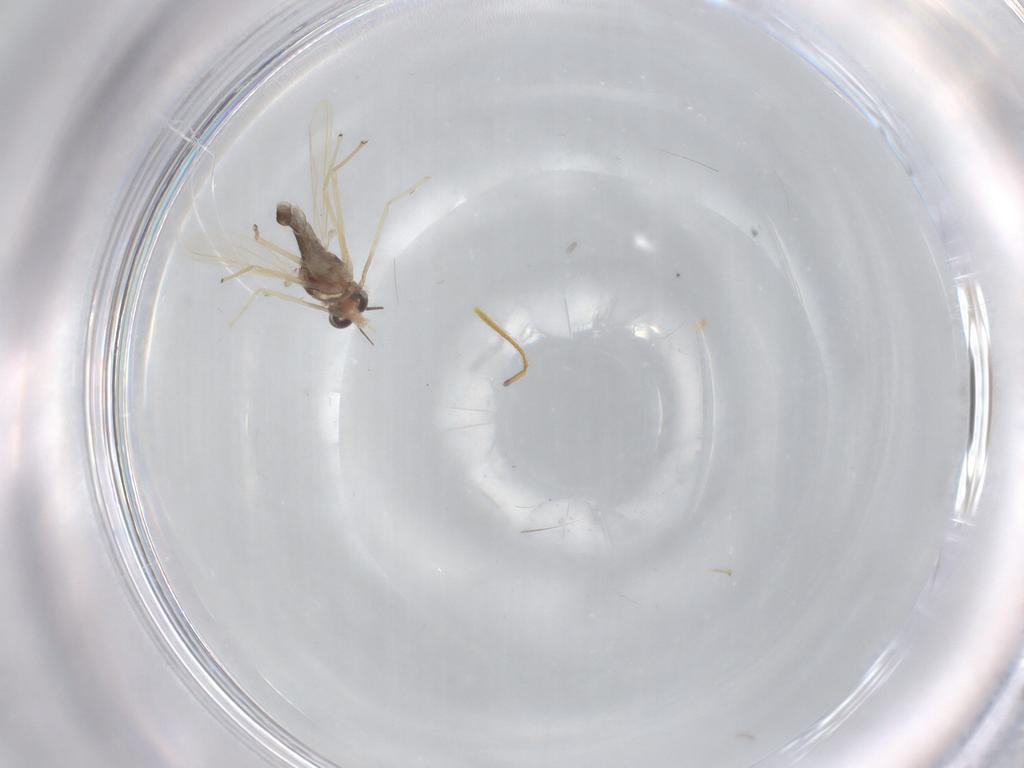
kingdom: Animalia
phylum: Arthropoda
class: Insecta
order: Diptera
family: Chironomidae
